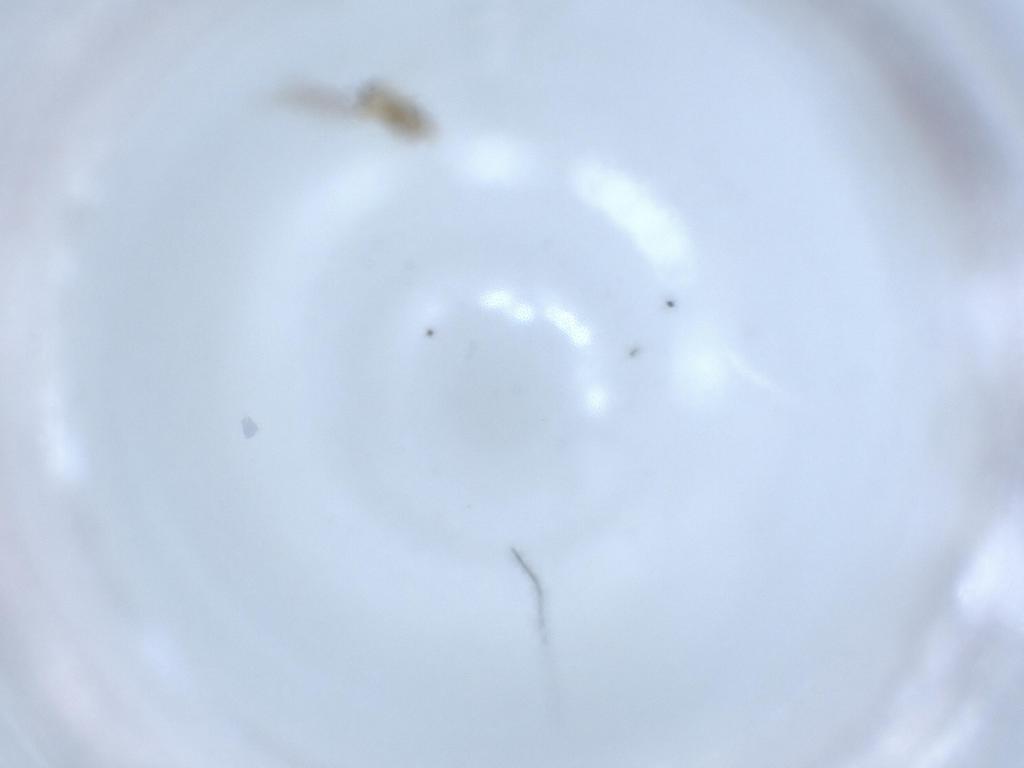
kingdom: Animalia
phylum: Arthropoda
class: Insecta
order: Diptera
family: Cecidomyiidae
